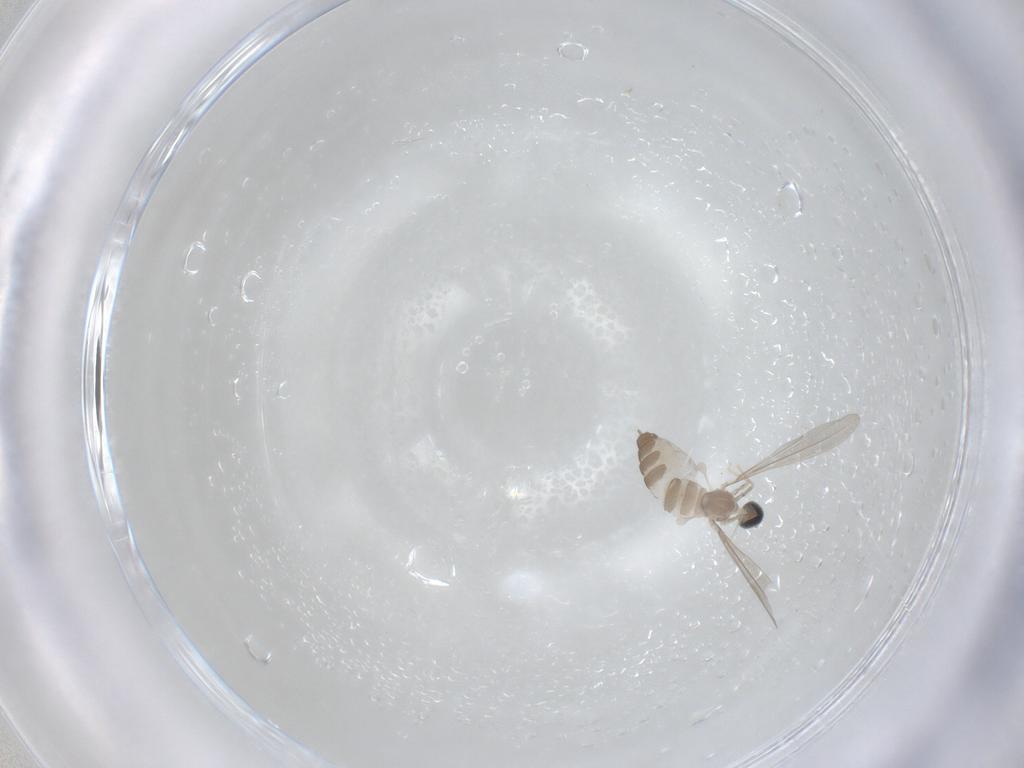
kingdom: Animalia
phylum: Arthropoda
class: Insecta
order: Diptera
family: Cecidomyiidae
